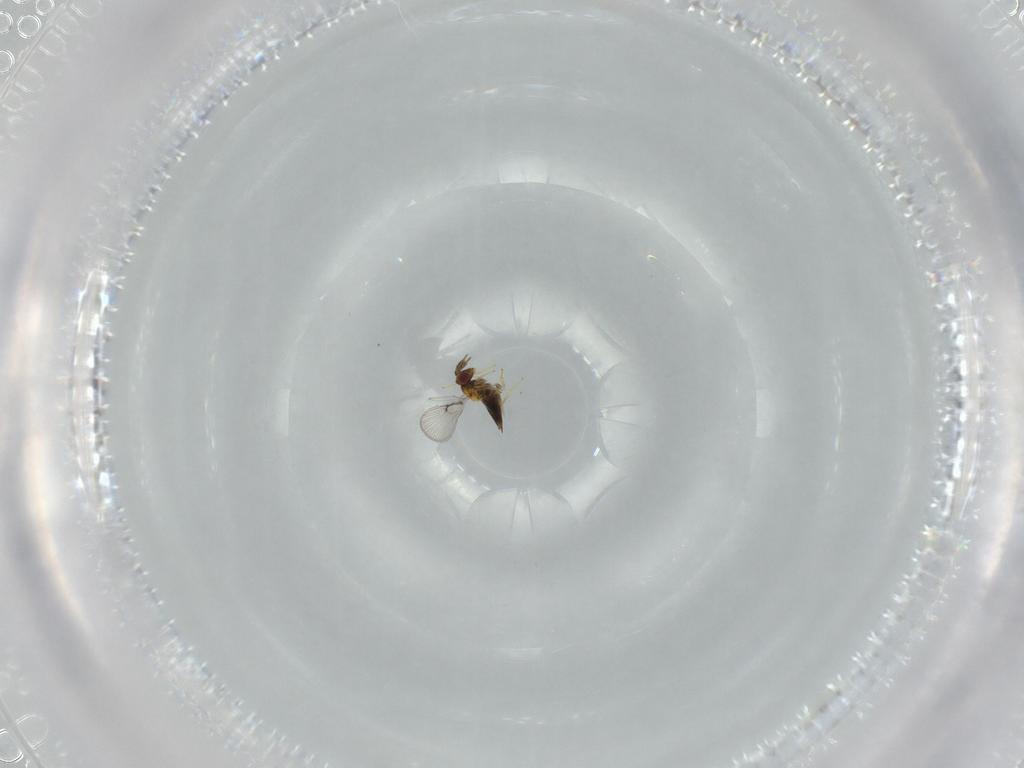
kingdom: Animalia
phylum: Arthropoda
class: Insecta
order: Hymenoptera
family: Trichogrammatidae
